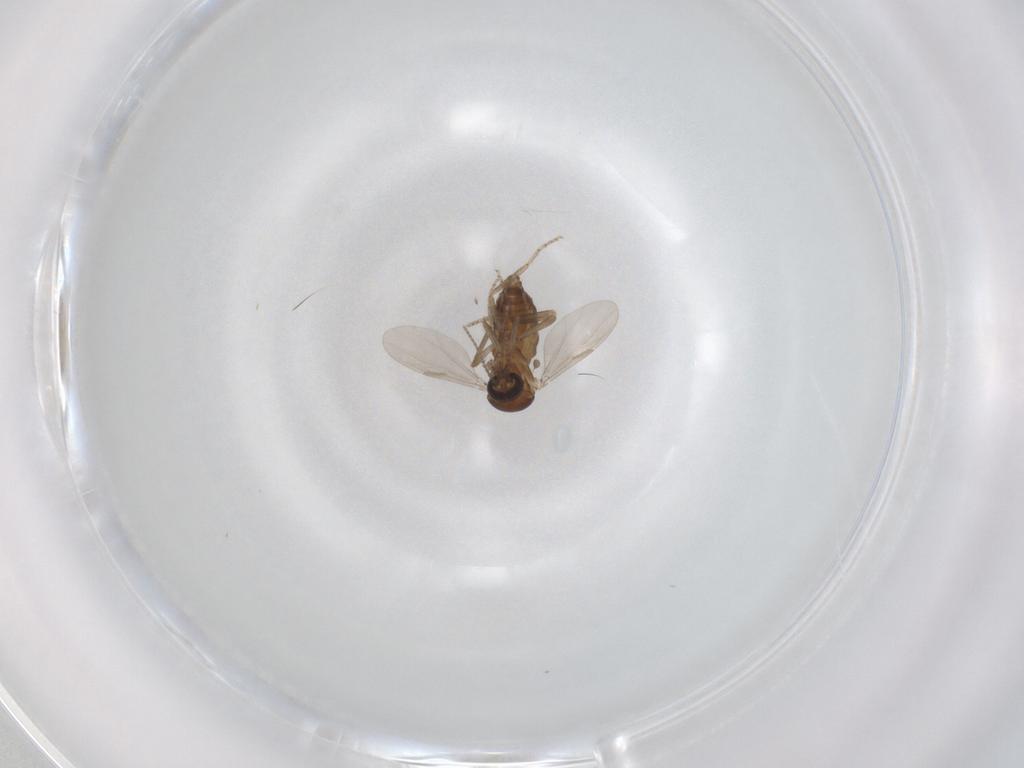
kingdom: Animalia
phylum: Arthropoda
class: Insecta
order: Diptera
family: Ceratopogonidae
